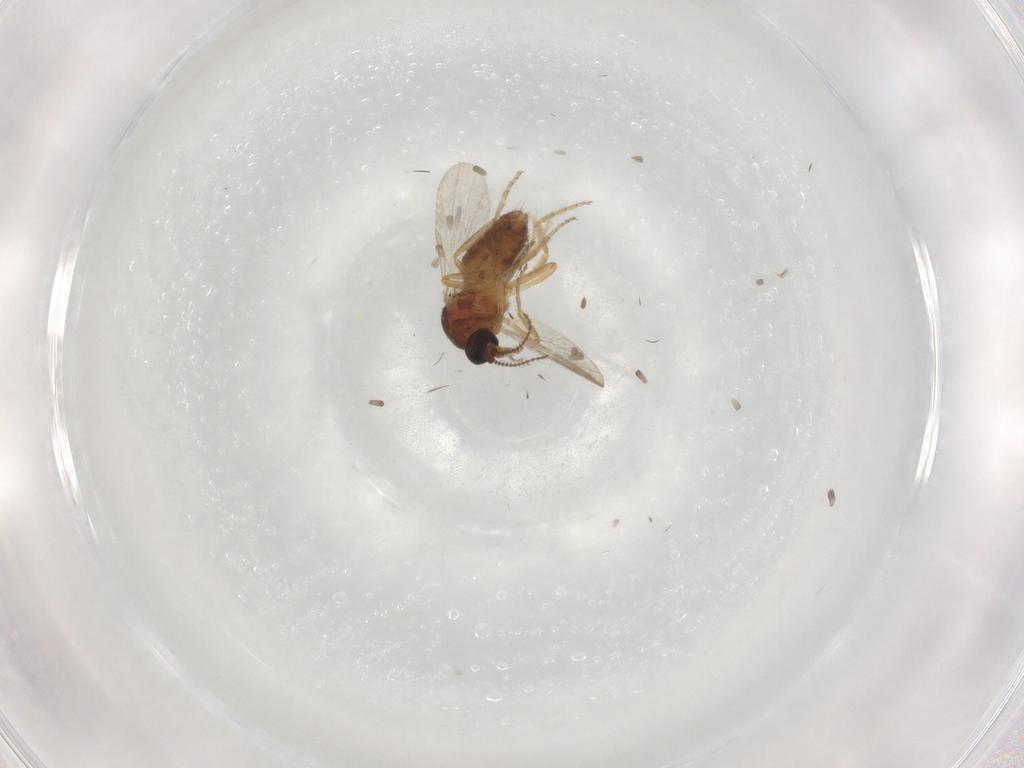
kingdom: Animalia
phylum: Arthropoda
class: Insecta
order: Diptera
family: Ceratopogonidae
